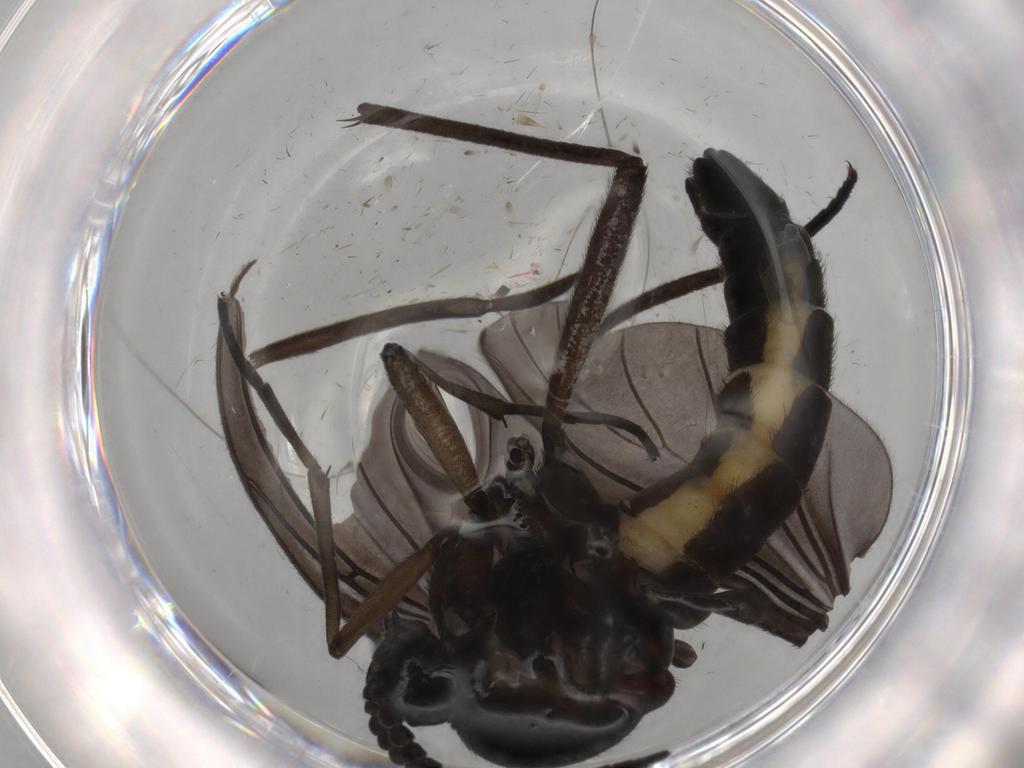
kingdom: Animalia
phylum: Arthropoda
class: Insecta
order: Diptera
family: Sciaridae
